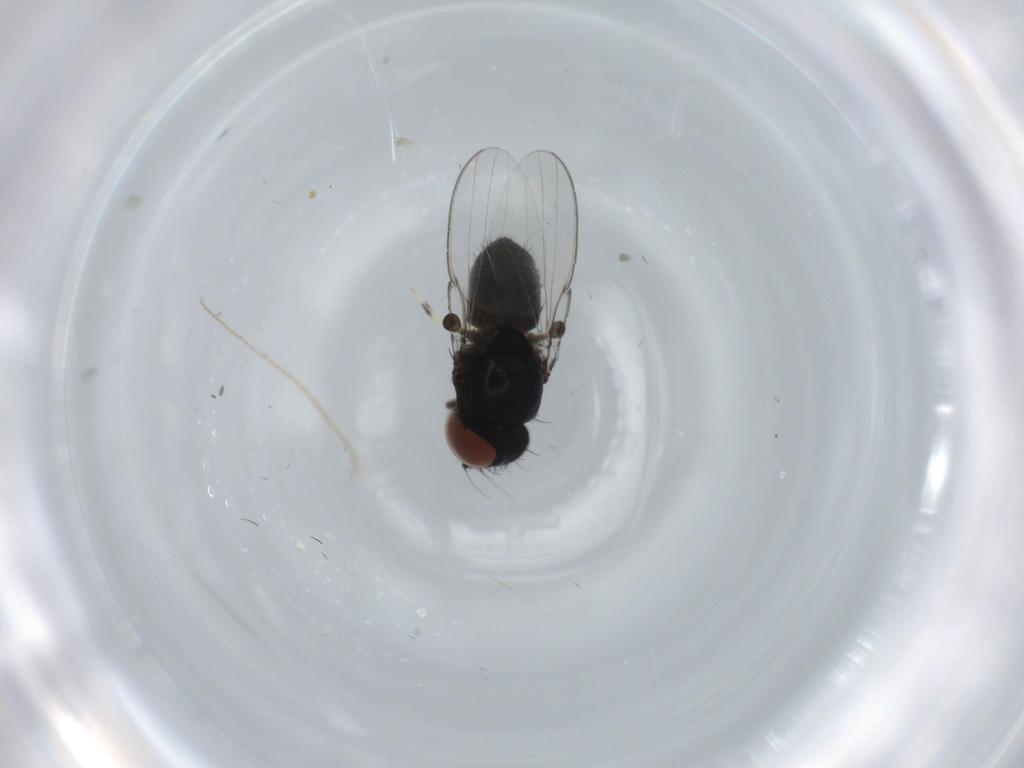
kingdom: Animalia
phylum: Arthropoda
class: Insecta
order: Diptera
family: Milichiidae
